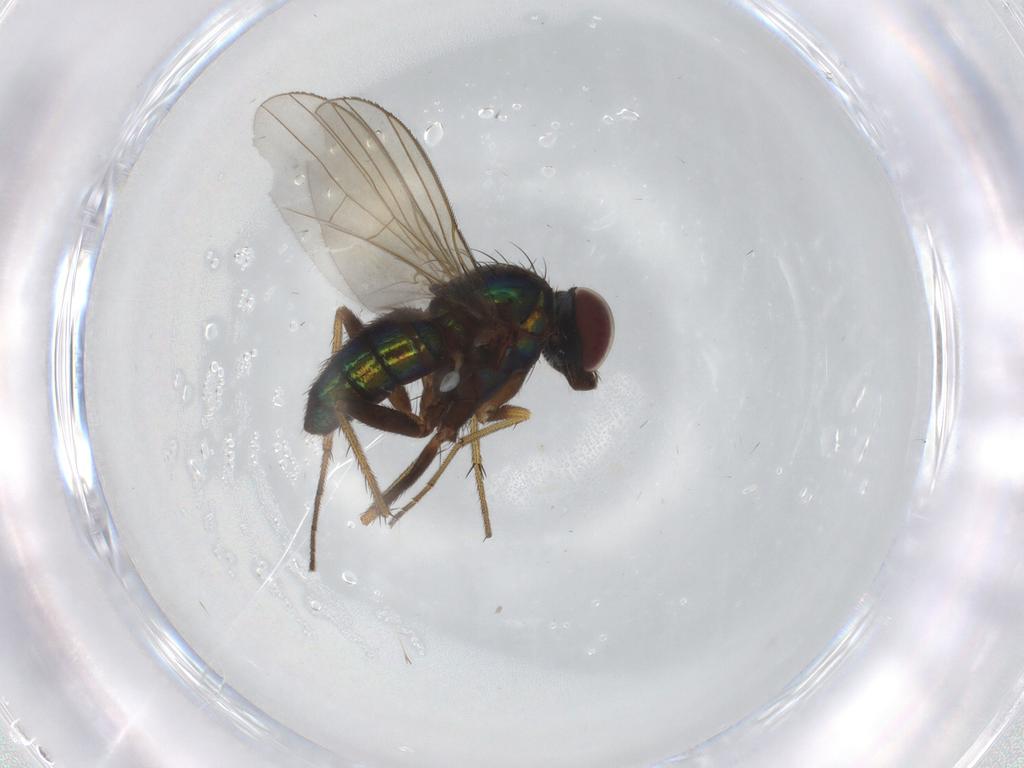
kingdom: Animalia
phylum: Arthropoda
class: Insecta
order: Diptera
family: Dolichopodidae
